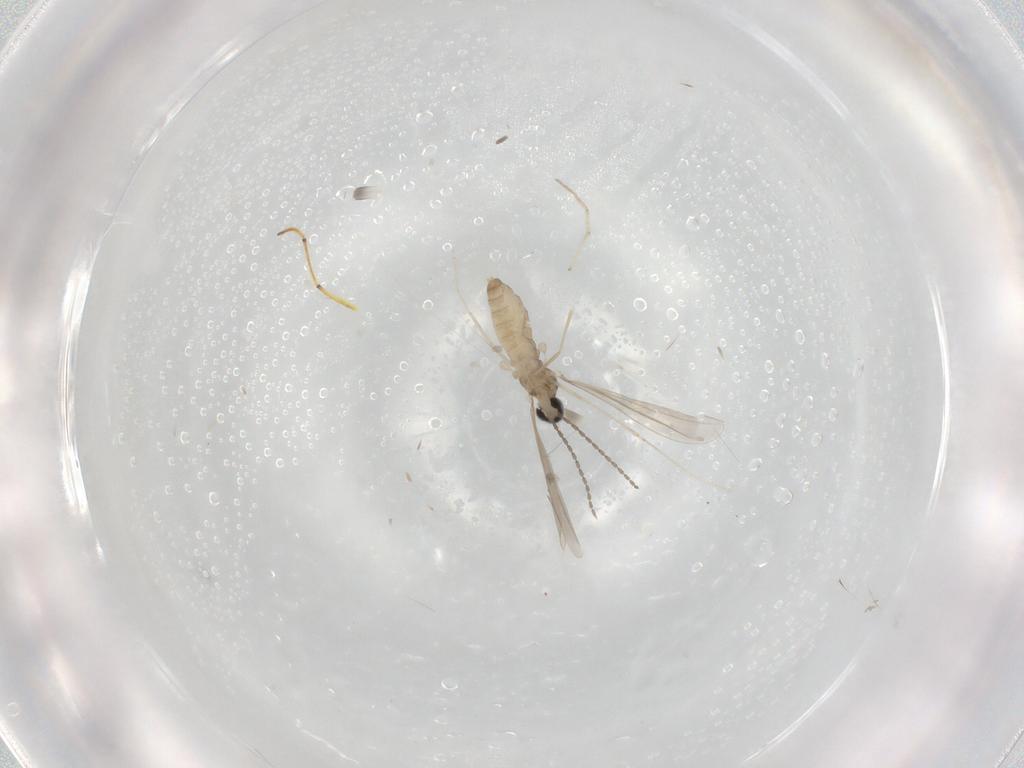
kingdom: Animalia
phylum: Arthropoda
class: Insecta
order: Diptera
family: Cecidomyiidae
